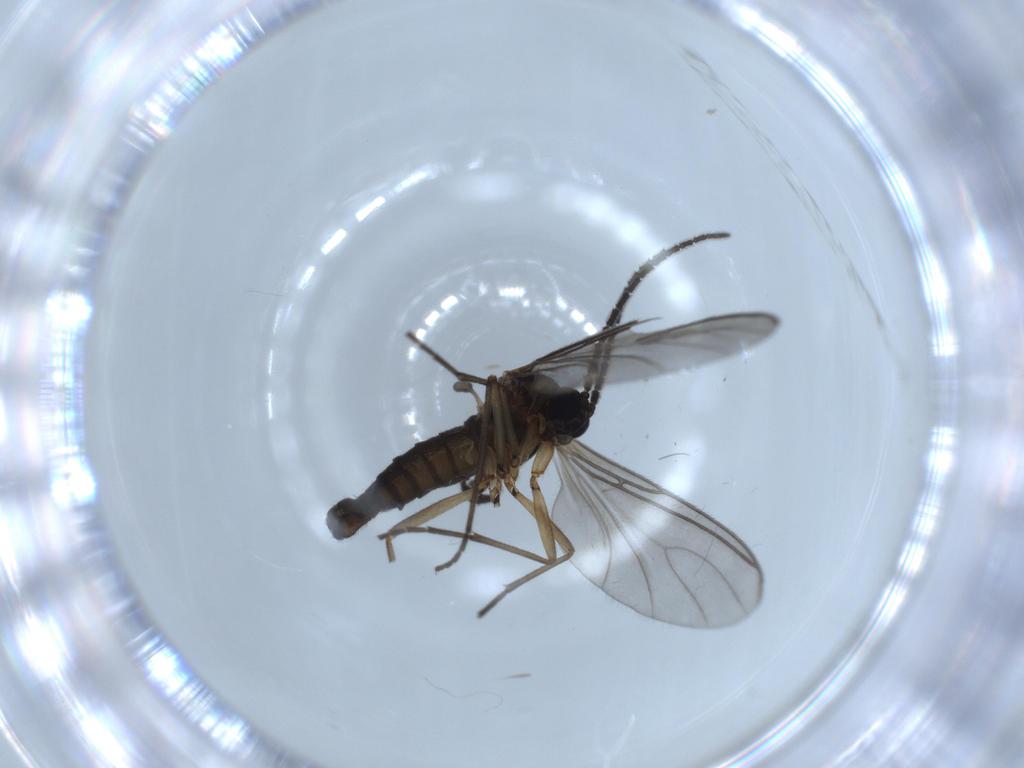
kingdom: Animalia
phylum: Arthropoda
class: Insecta
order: Diptera
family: Sciaridae
